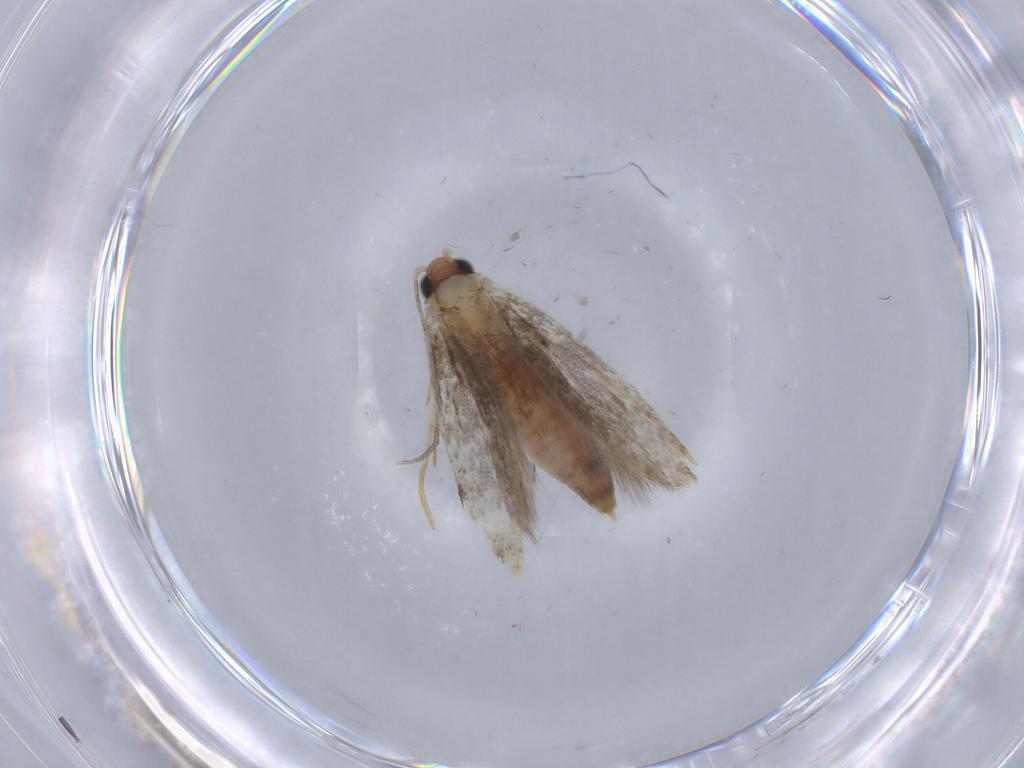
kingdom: Animalia
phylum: Arthropoda
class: Insecta
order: Lepidoptera
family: Tineidae
